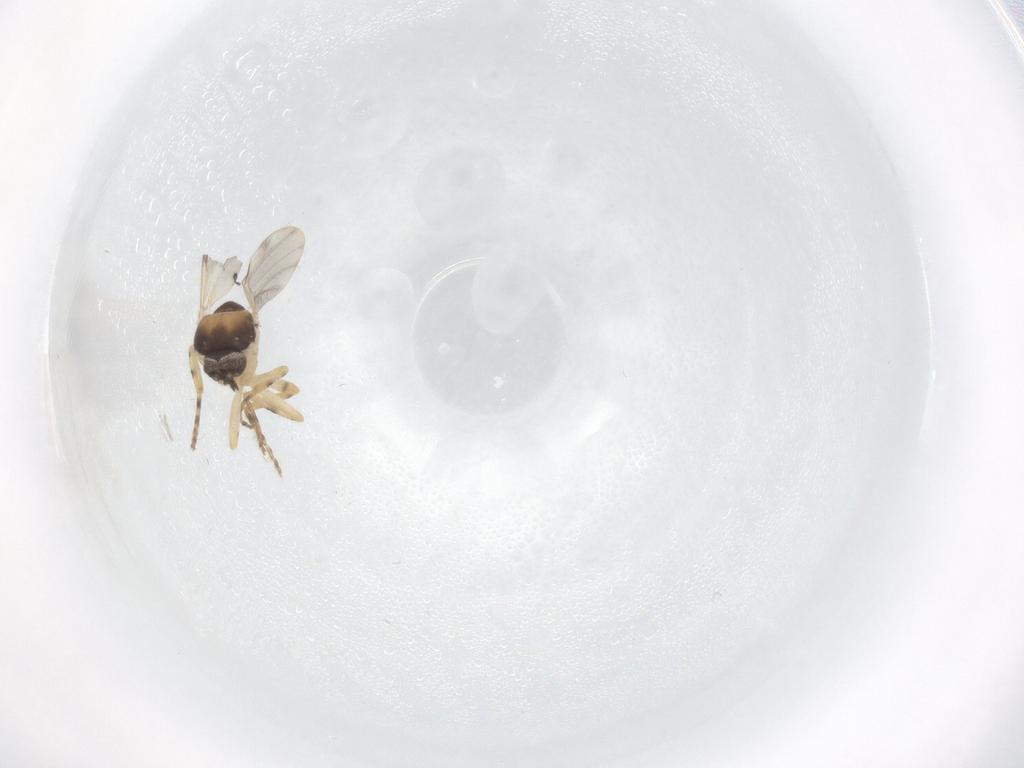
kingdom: Animalia
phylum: Arthropoda
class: Insecta
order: Diptera
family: Ceratopogonidae
